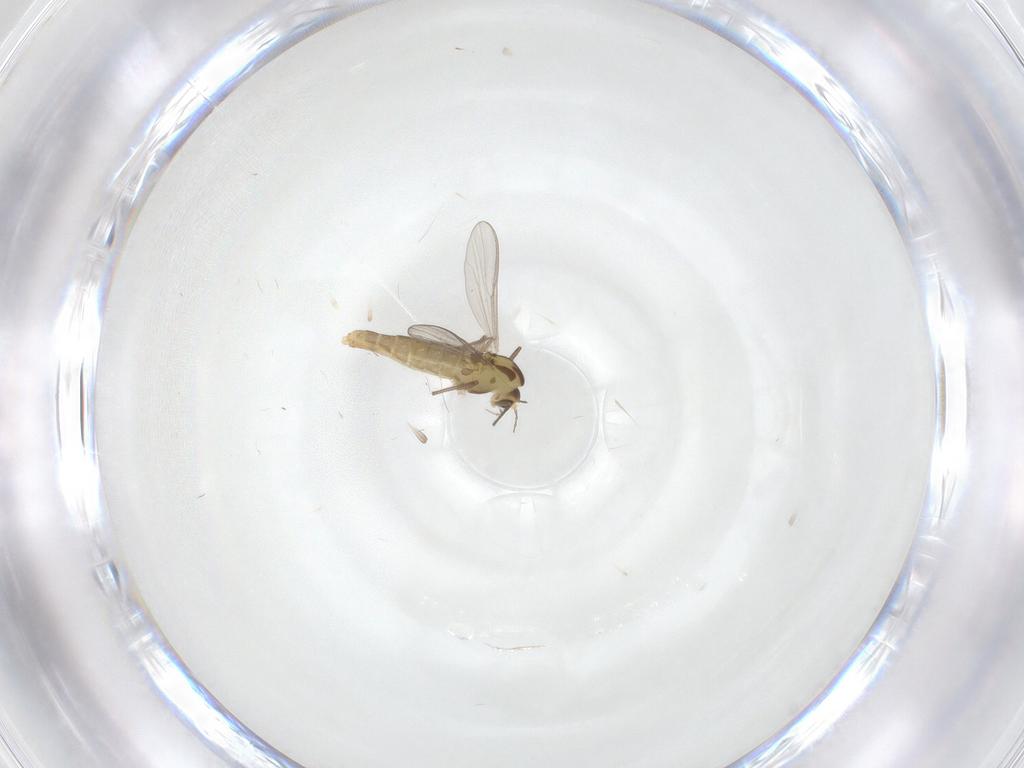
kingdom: Animalia
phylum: Arthropoda
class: Insecta
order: Diptera
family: Chironomidae
